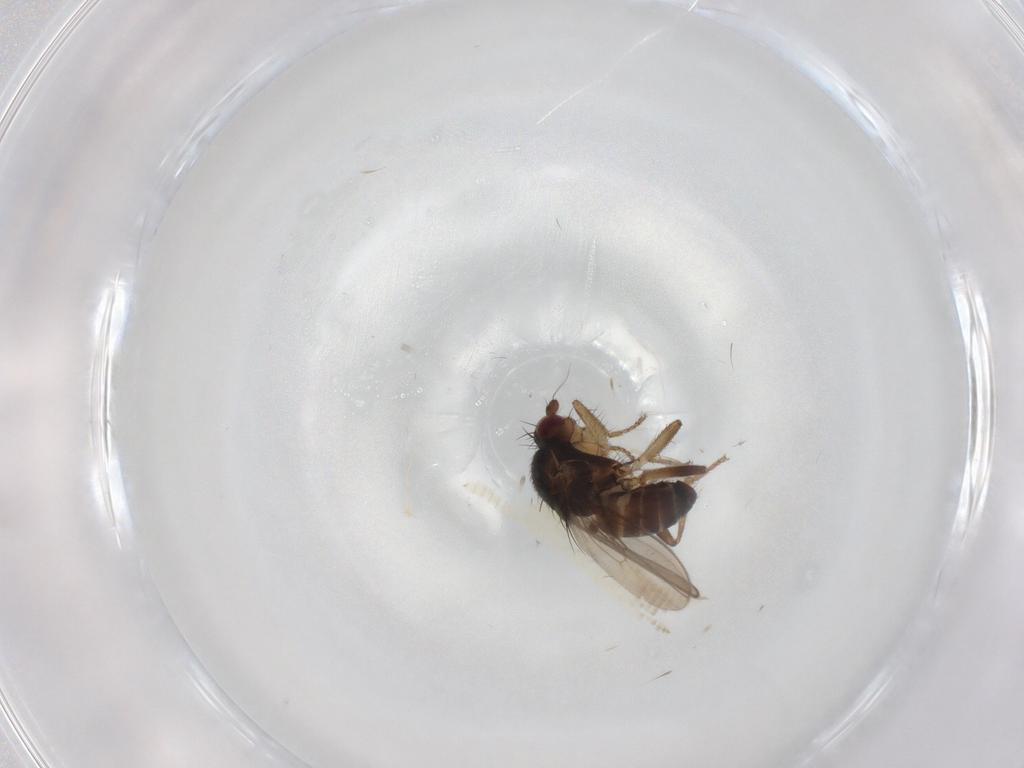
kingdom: Animalia
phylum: Arthropoda
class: Insecta
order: Diptera
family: Sphaeroceridae
